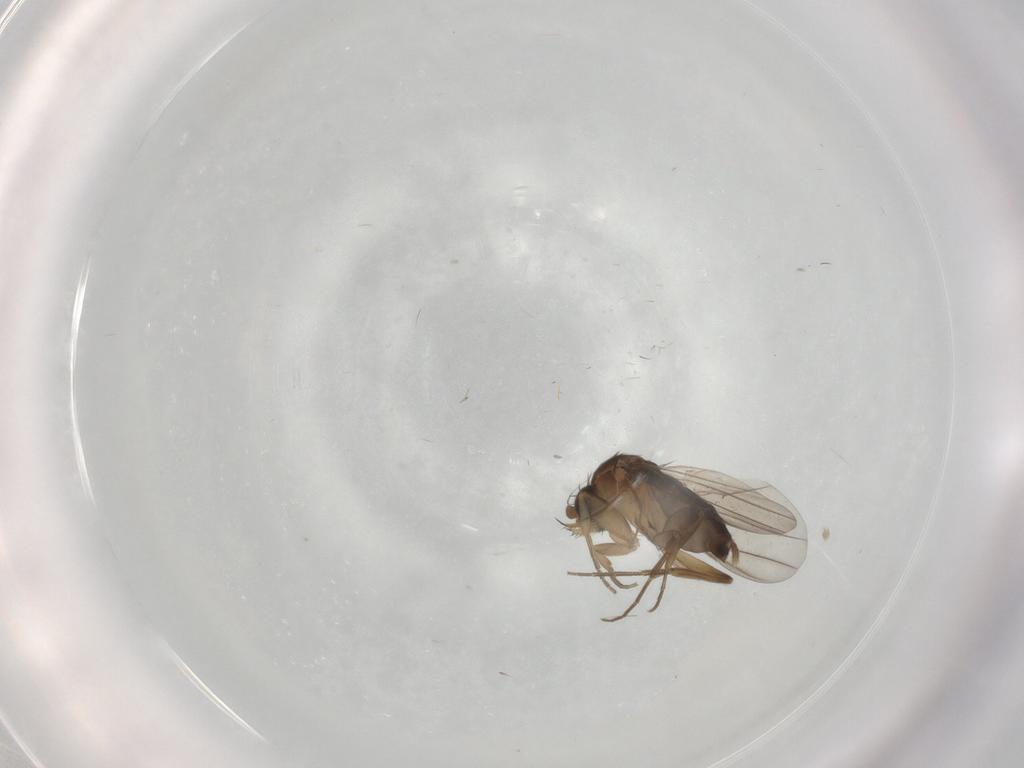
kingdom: Animalia
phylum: Arthropoda
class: Insecta
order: Diptera
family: Phoridae
